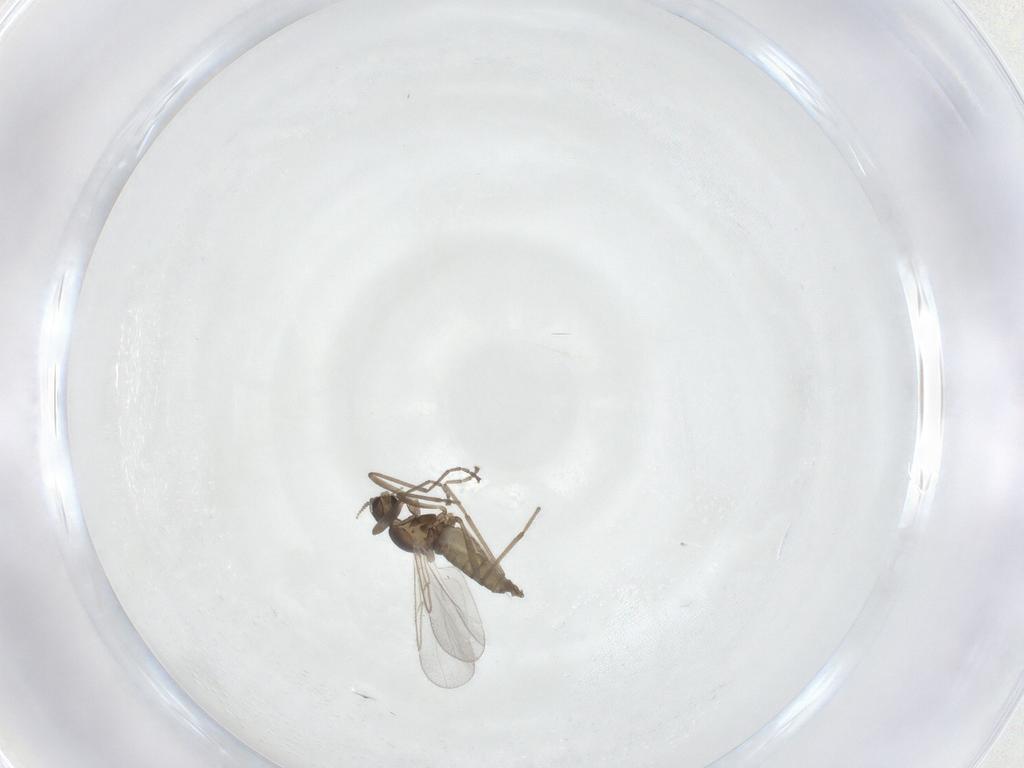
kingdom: Animalia
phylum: Arthropoda
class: Insecta
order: Diptera
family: Cecidomyiidae
